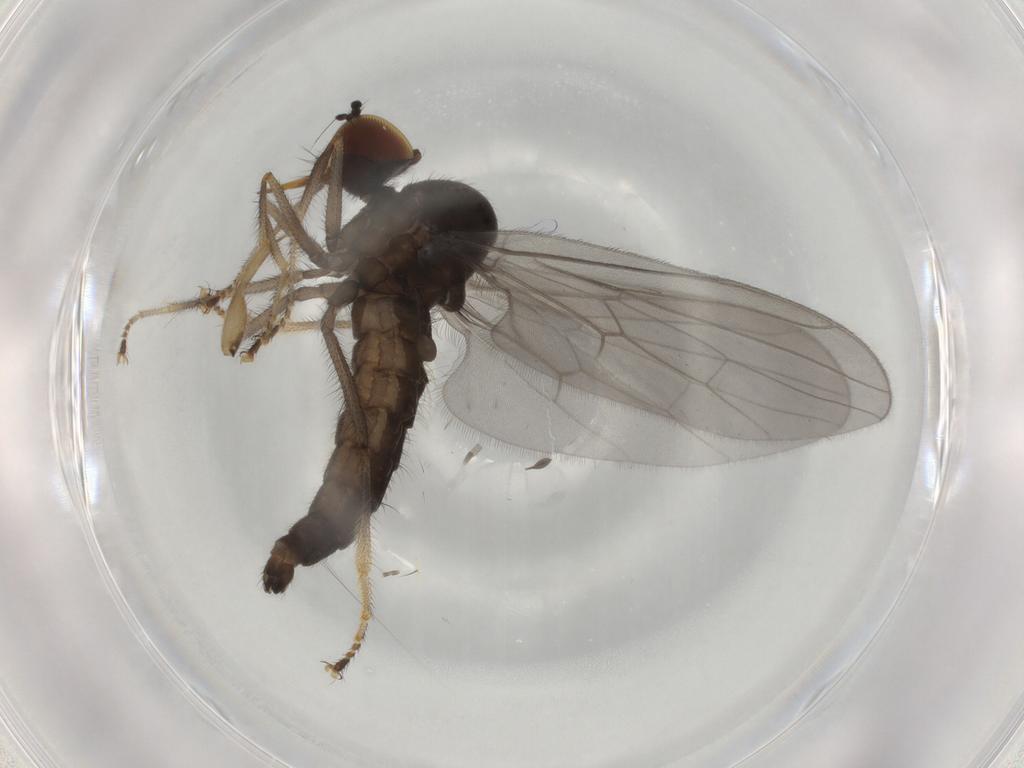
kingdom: Animalia
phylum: Arthropoda
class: Insecta
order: Diptera
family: Hybotidae
